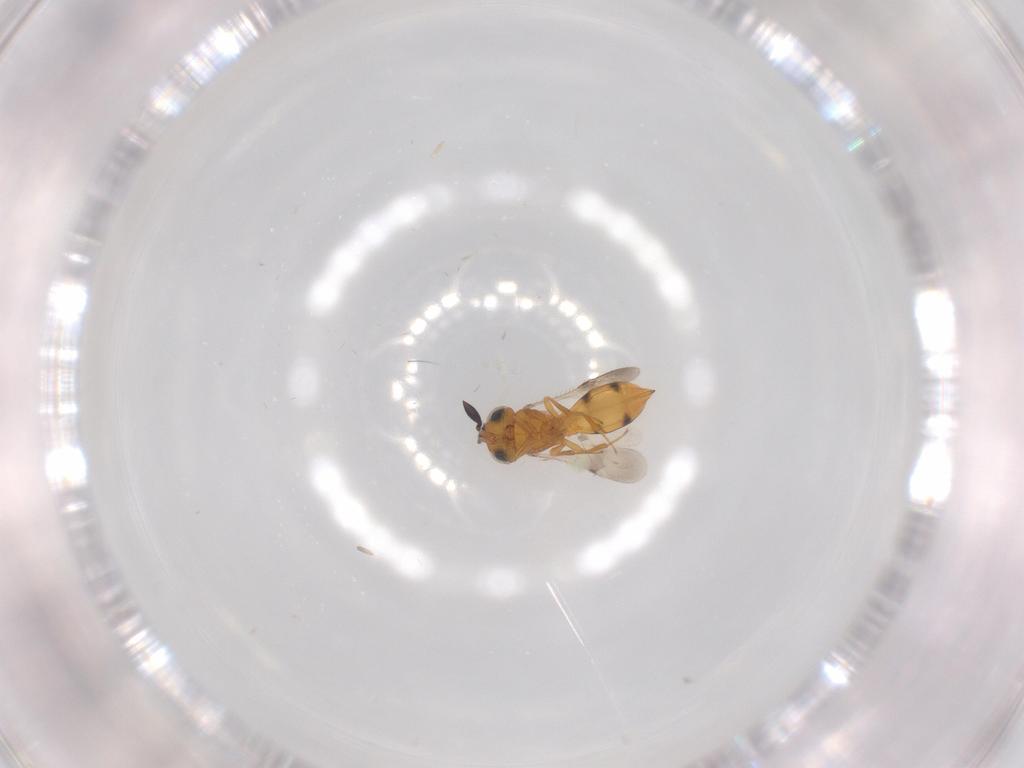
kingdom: Animalia
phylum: Arthropoda
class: Insecta
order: Hymenoptera
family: Scelionidae
